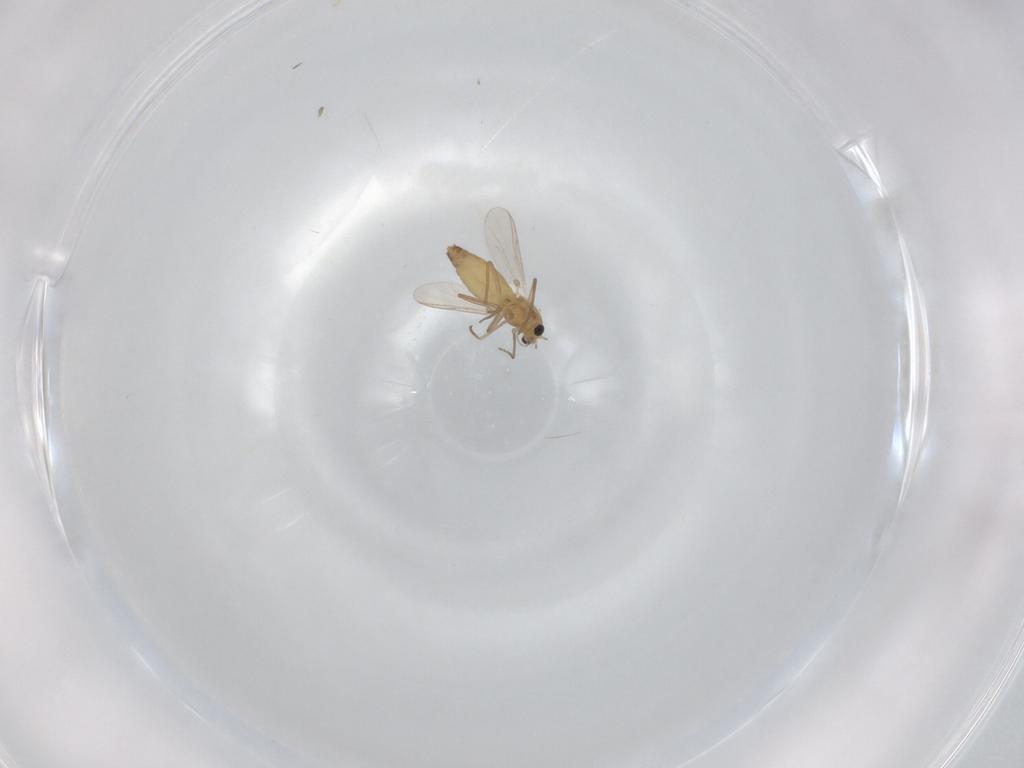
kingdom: Animalia
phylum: Arthropoda
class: Insecta
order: Diptera
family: Chironomidae
